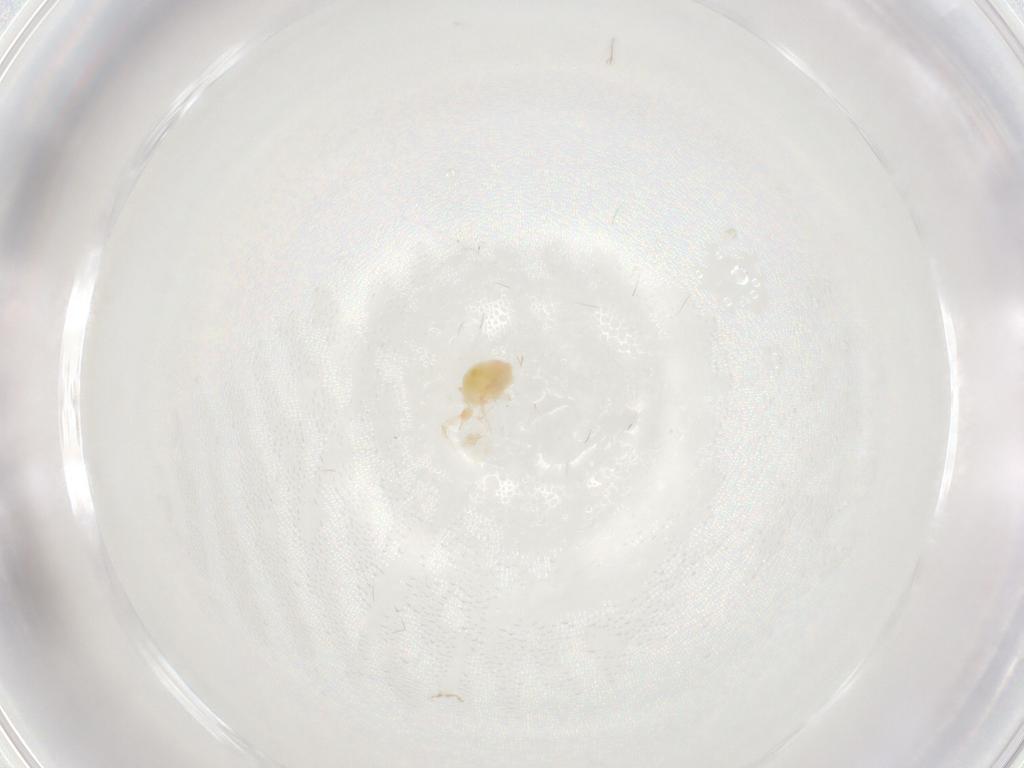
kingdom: Animalia
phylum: Arthropoda
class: Arachnida
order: Trombidiformes
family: Cunaxidae
